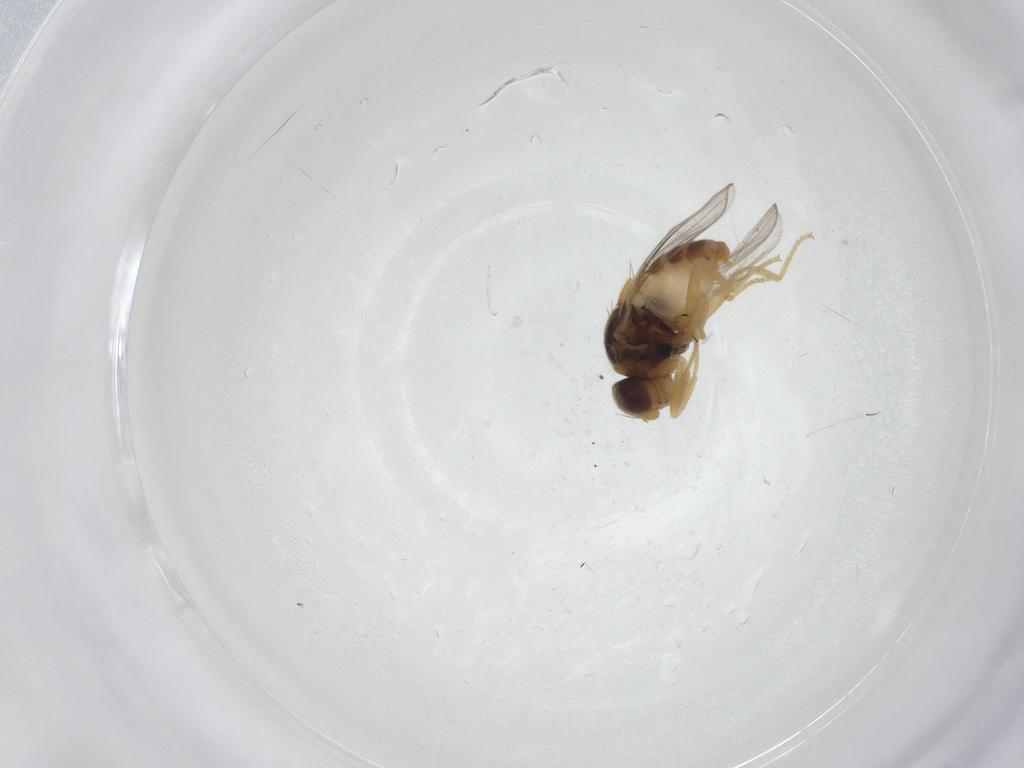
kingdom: Animalia
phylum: Arthropoda
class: Insecta
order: Diptera
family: Chloropidae
